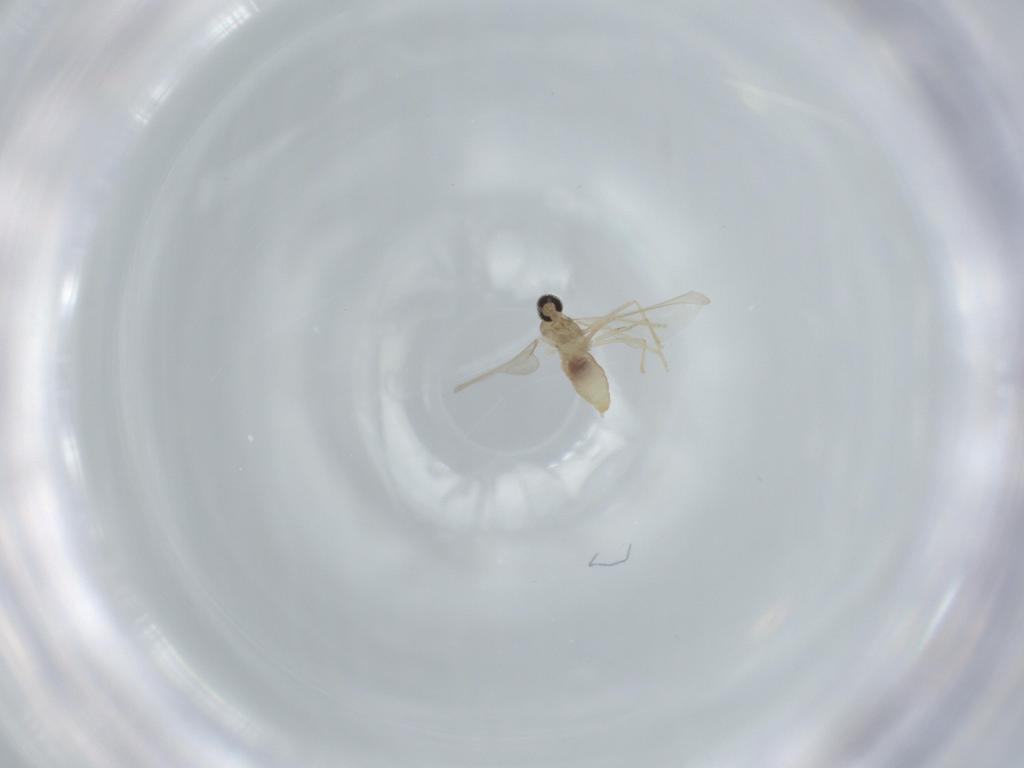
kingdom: Animalia
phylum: Arthropoda
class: Insecta
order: Diptera
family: Cecidomyiidae
